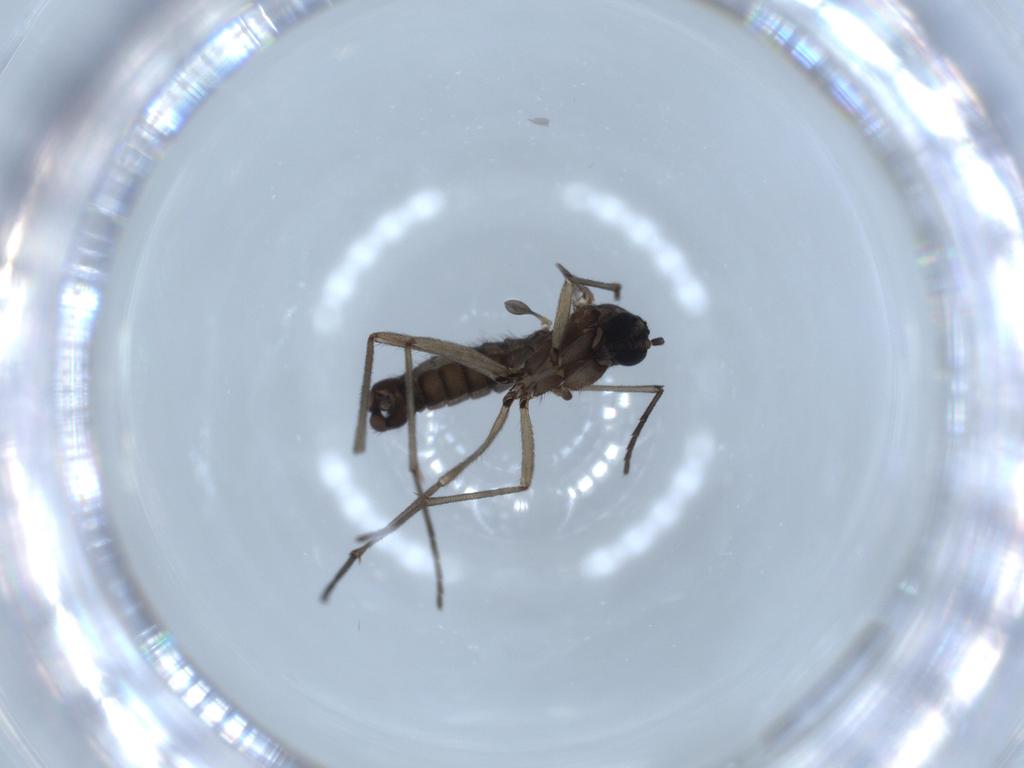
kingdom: Animalia
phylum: Arthropoda
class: Insecta
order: Diptera
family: Sciaridae
